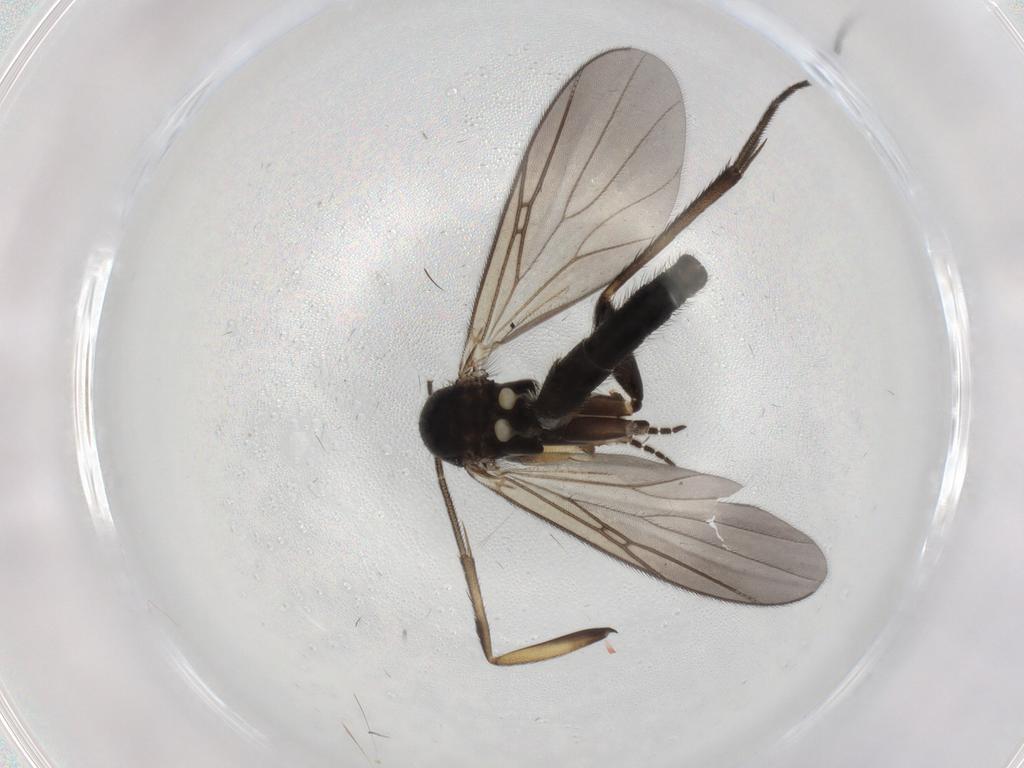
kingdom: Animalia
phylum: Arthropoda
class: Insecta
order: Diptera
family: Mycetophilidae
